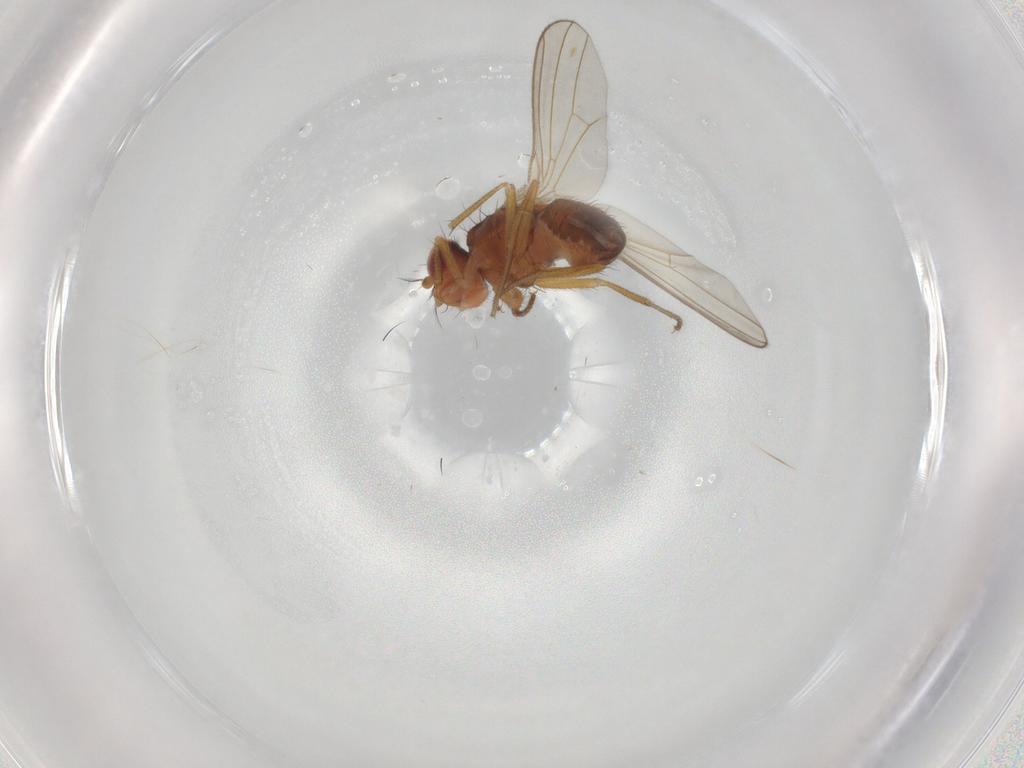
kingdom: Animalia
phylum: Arthropoda
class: Insecta
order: Diptera
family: Drosophilidae
